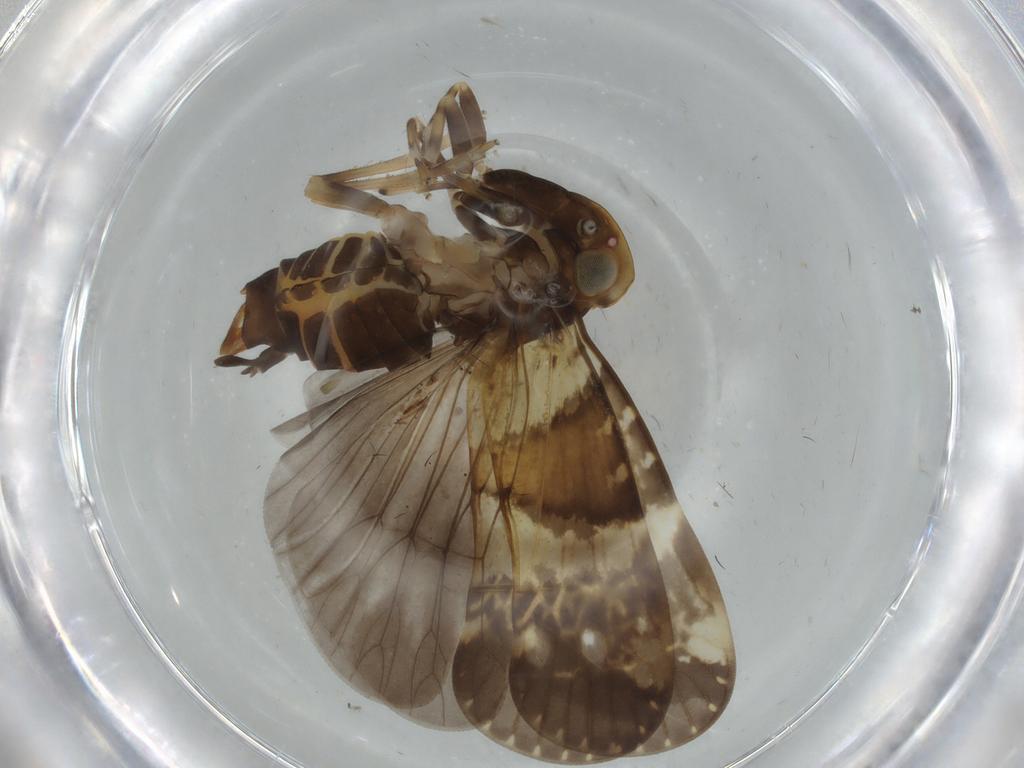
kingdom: Animalia
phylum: Arthropoda
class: Insecta
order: Hemiptera
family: Cixiidae
